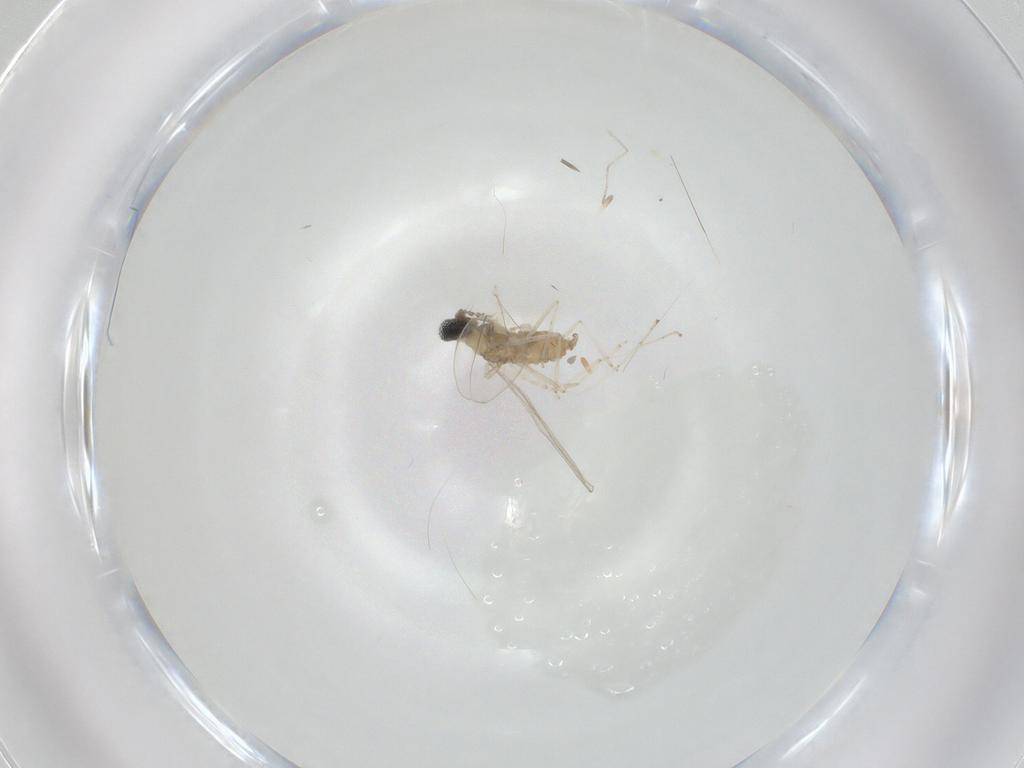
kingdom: Animalia
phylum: Arthropoda
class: Insecta
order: Diptera
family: Cecidomyiidae
